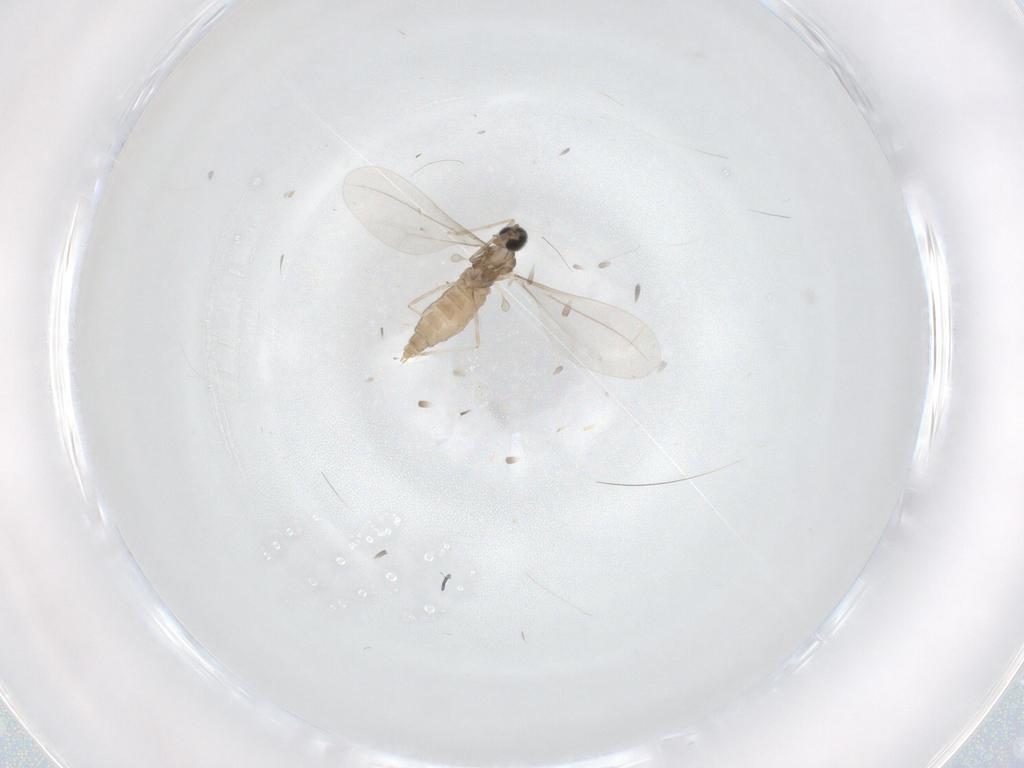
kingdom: Animalia
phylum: Arthropoda
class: Insecta
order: Diptera
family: Cecidomyiidae
